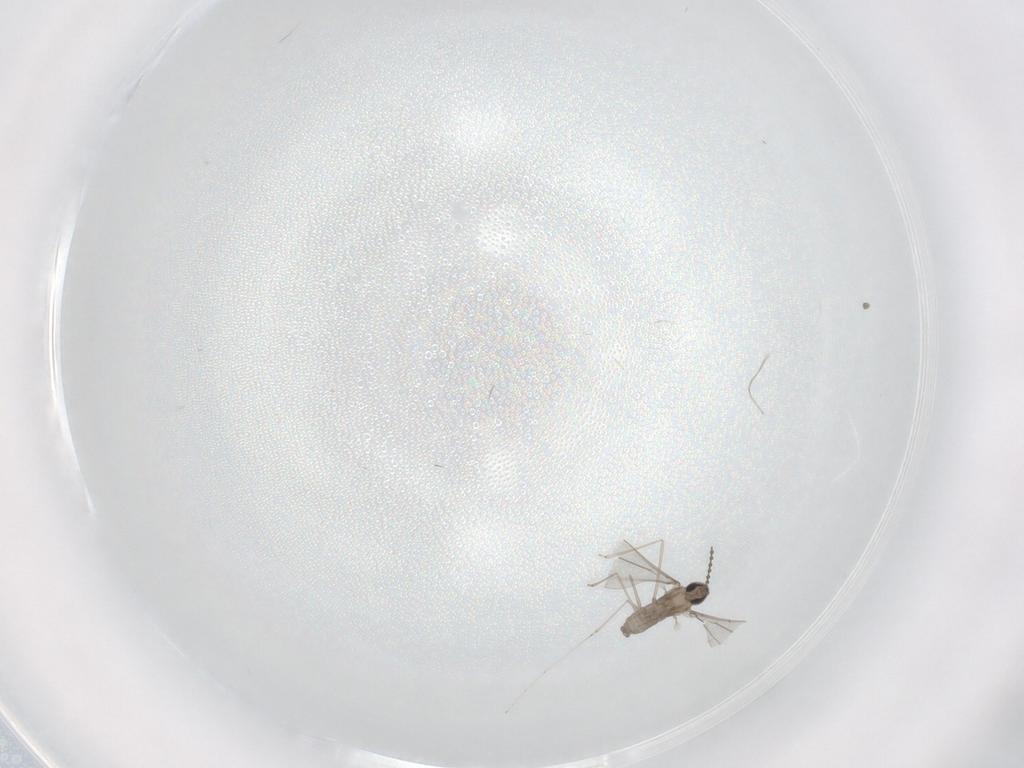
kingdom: Animalia
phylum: Arthropoda
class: Insecta
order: Diptera
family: Cecidomyiidae
